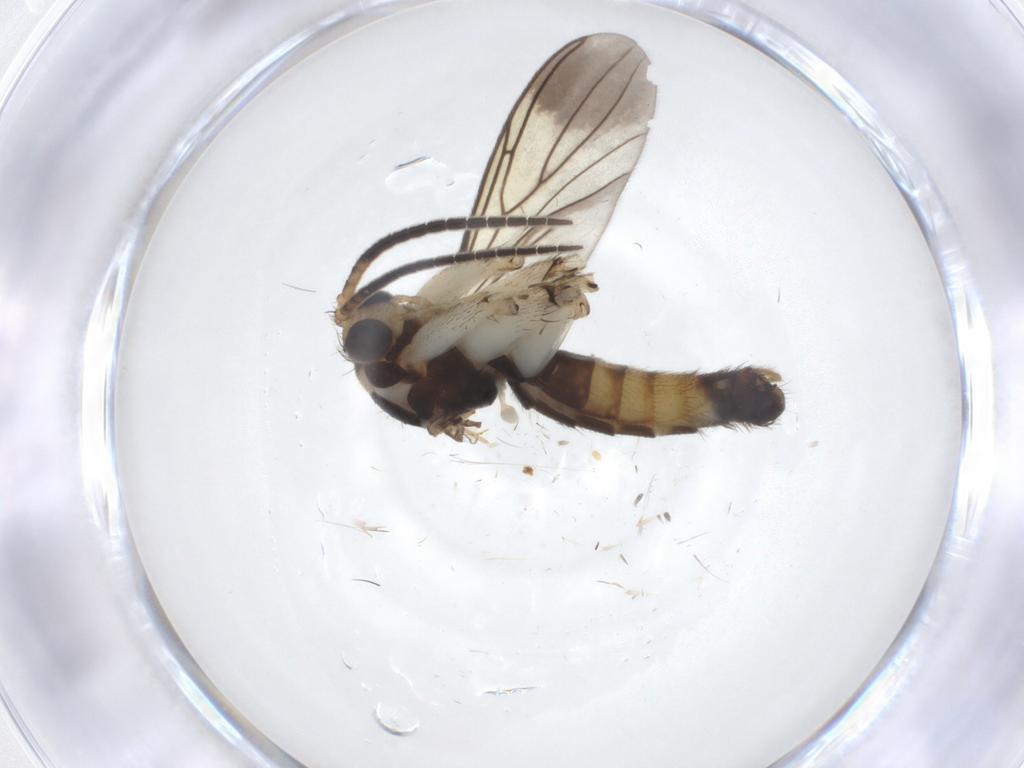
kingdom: Animalia
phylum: Arthropoda
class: Insecta
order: Diptera
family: Limoniidae
